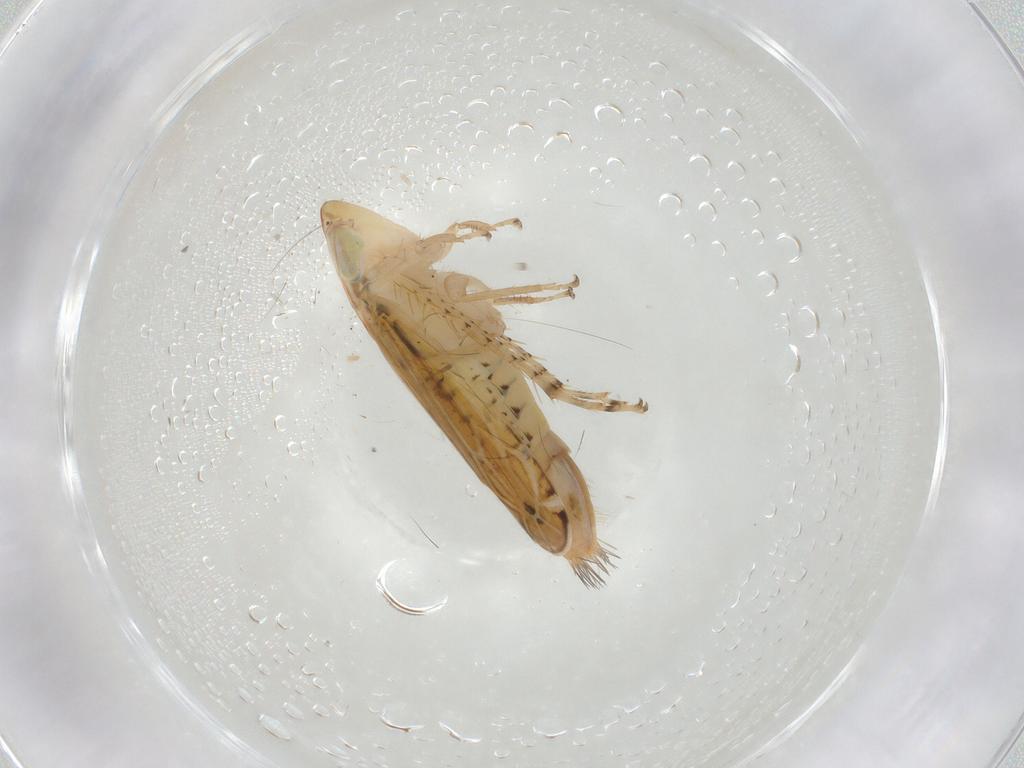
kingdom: Animalia
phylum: Arthropoda
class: Insecta
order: Hemiptera
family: Cicadellidae
